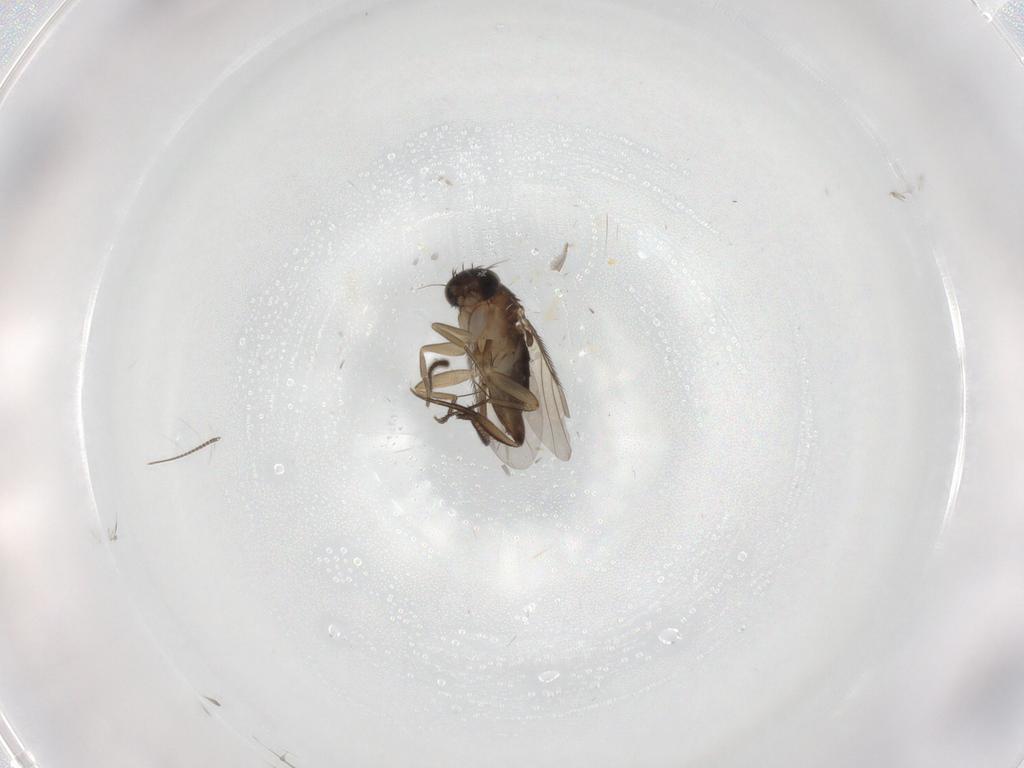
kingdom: Animalia
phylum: Arthropoda
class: Insecta
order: Diptera
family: Phoridae
